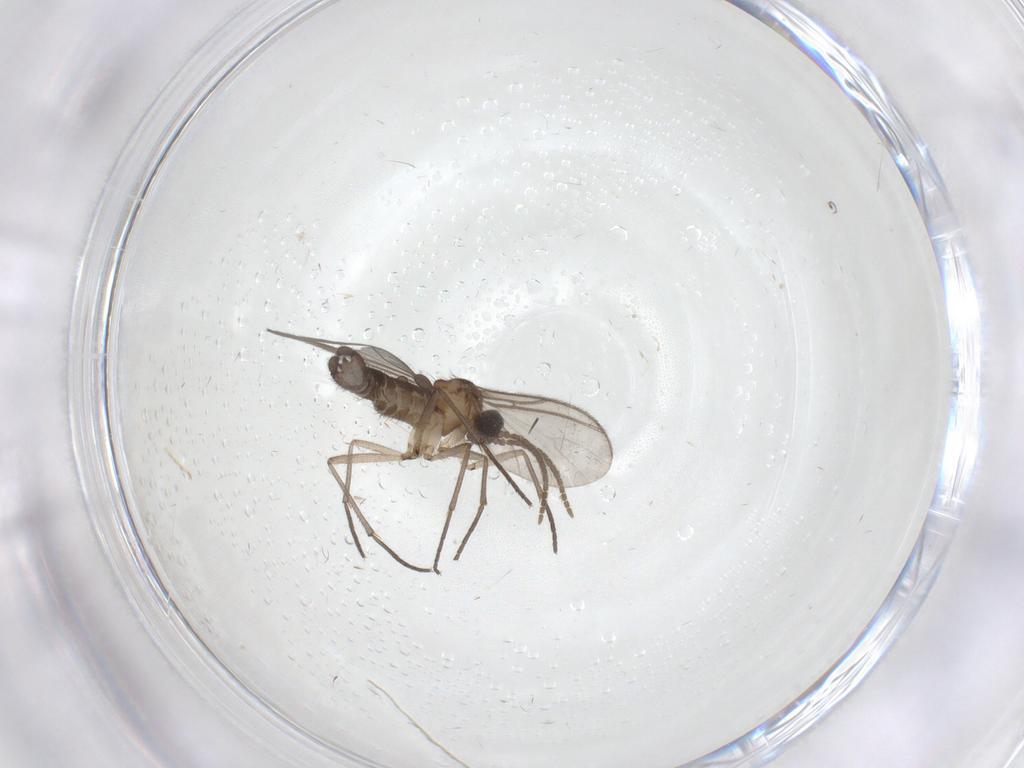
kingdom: Animalia
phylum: Arthropoda
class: Insecta
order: Diptera
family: Limoniidae
